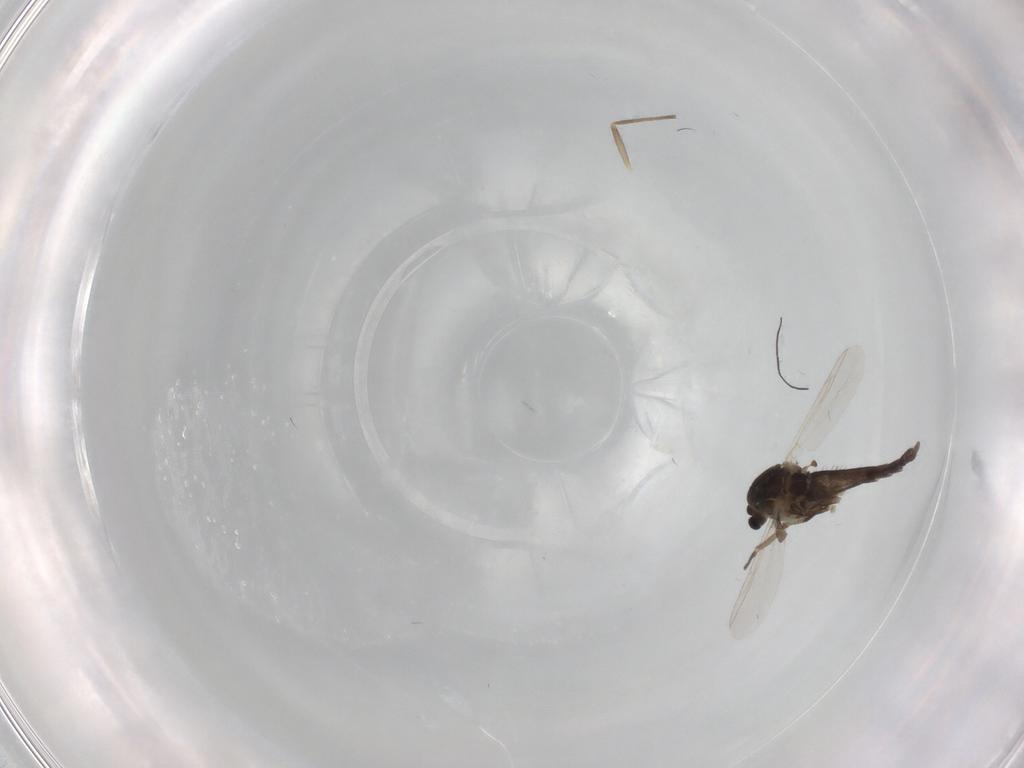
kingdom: Animalia
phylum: Arthropoda
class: Insecta
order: Diptera
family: Chironomidae
